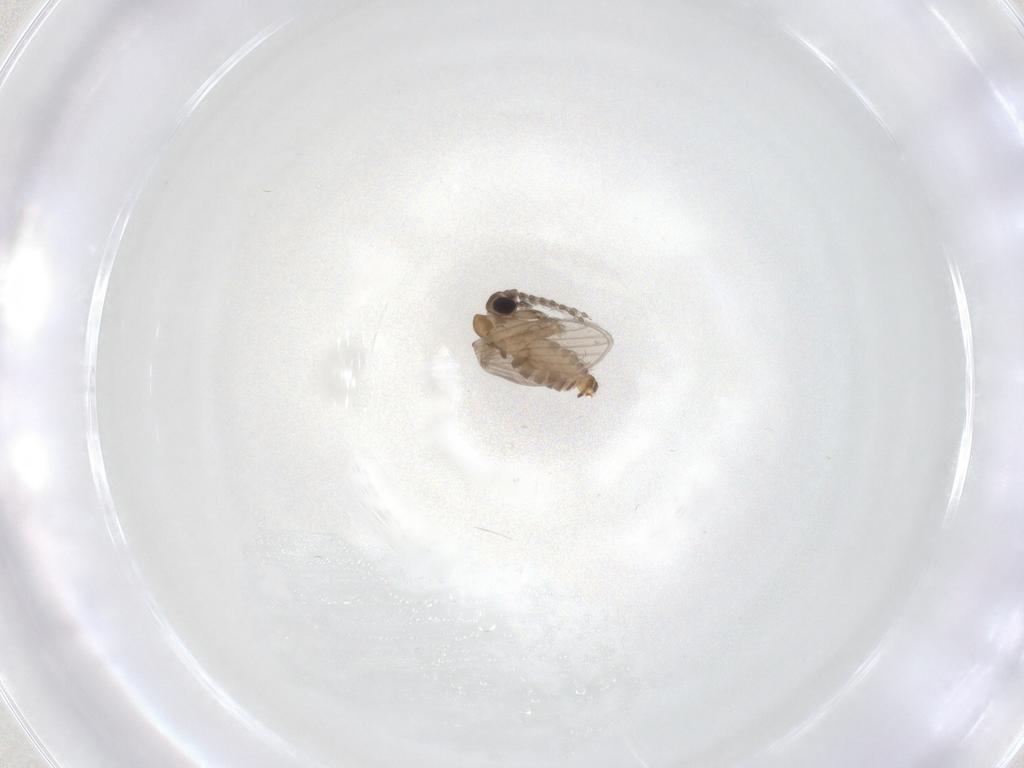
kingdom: Animalia
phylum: Arthropoda
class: Insecta
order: Diptera
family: Psychodidae
